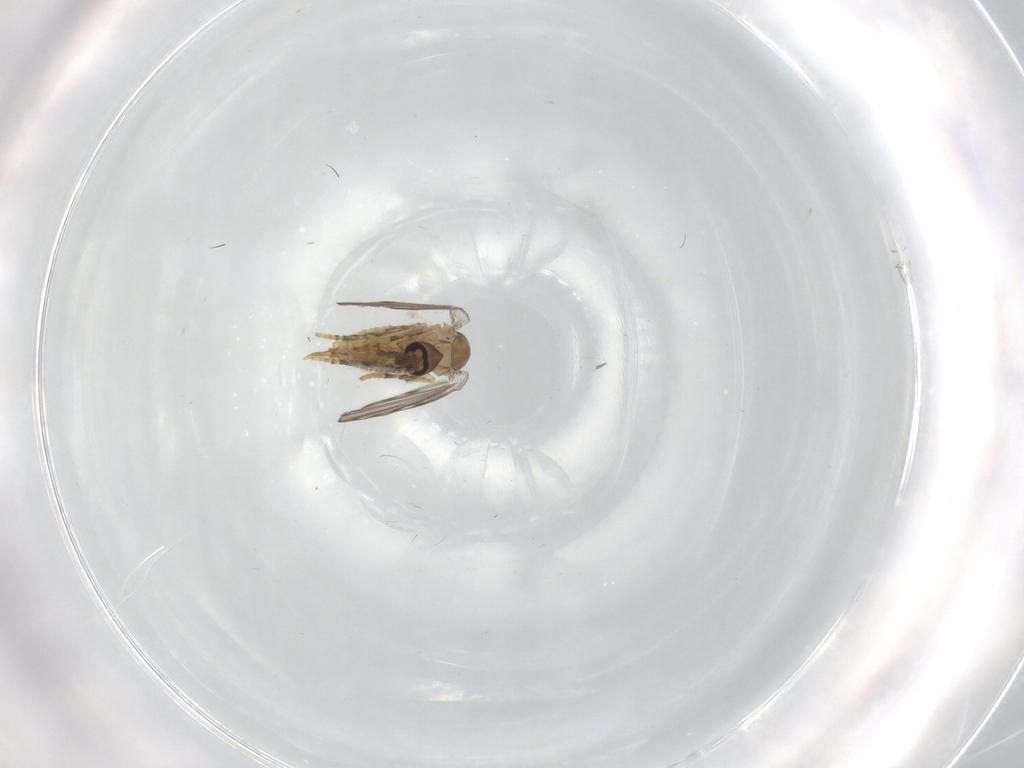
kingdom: Animalia
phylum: Arthropoda
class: Insecta
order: Diptera
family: Psychodidae
